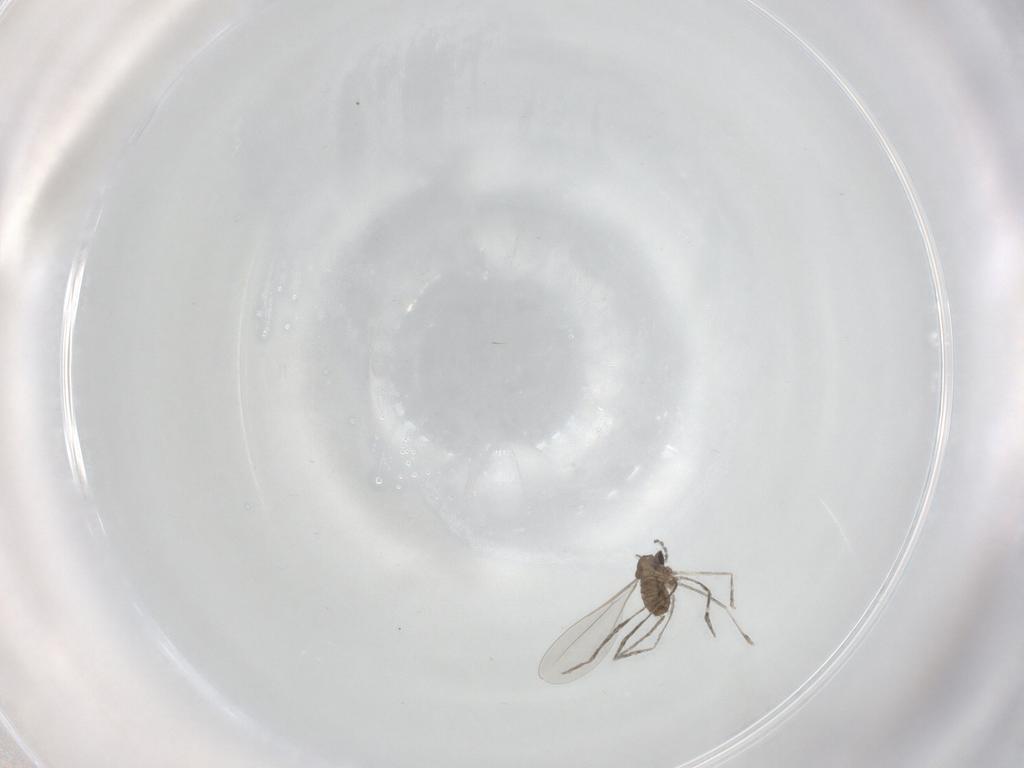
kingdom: Animalia
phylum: Arthropoda
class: Insecta
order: Diptera
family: Cecidomyiidae
